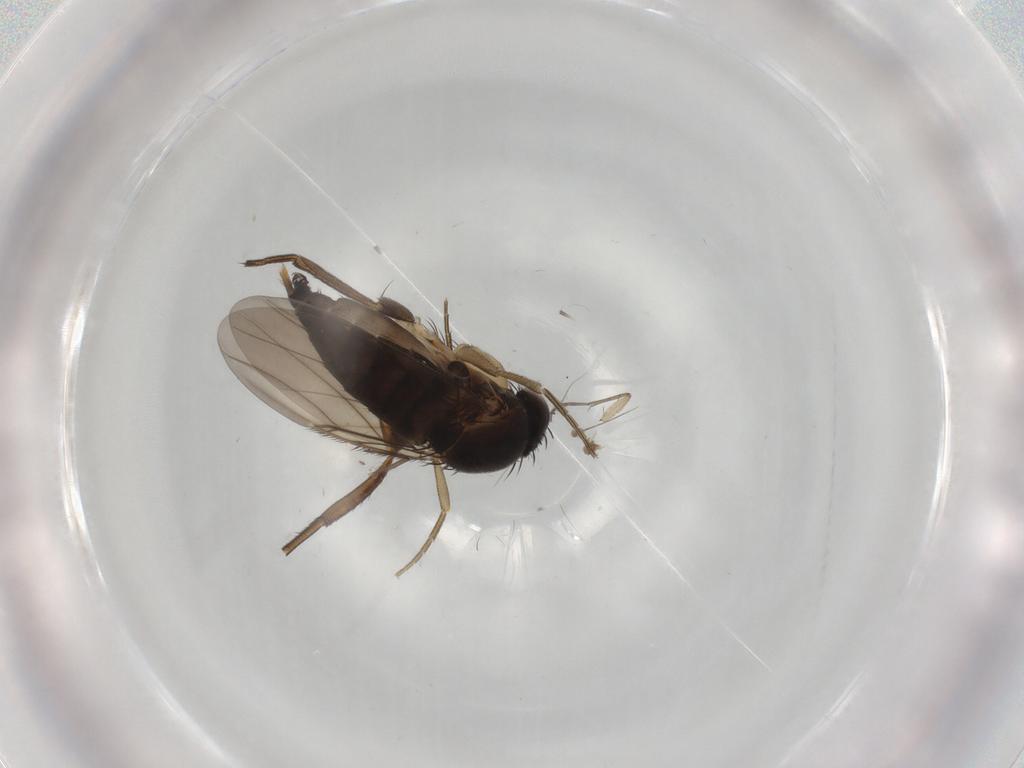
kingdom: Animalia
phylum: Arthropoda
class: Insecta
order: Diptera
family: Phoridae
